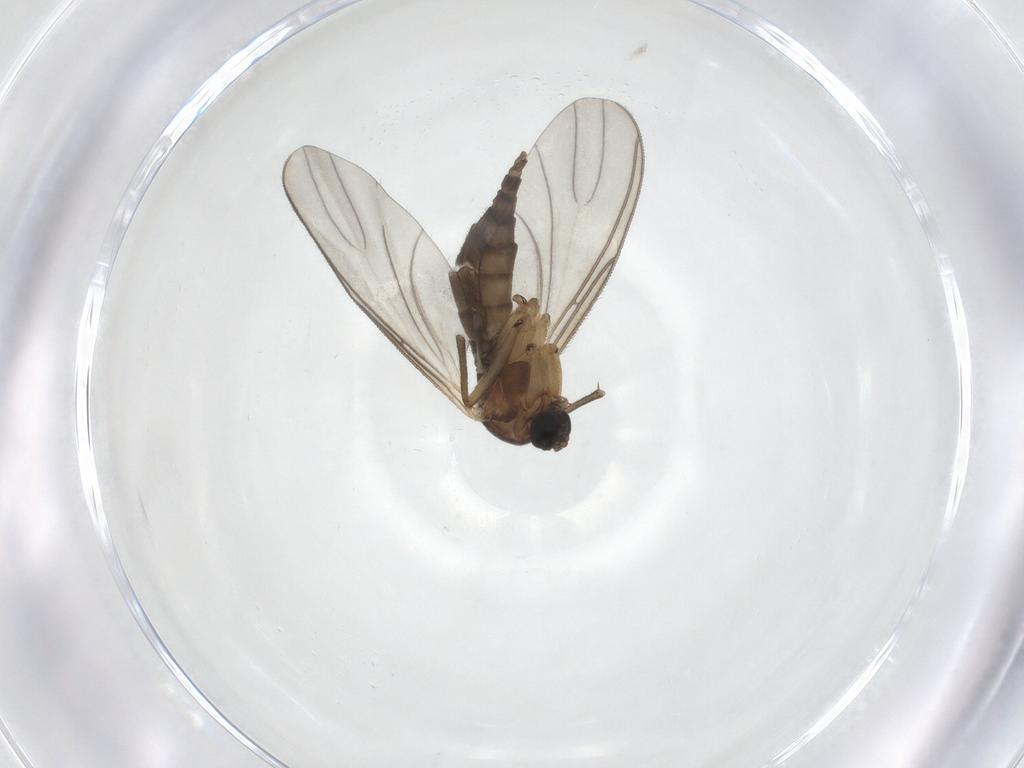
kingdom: Animalia
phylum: Arthropoda
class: Insecta
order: Diptera
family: Sciaridae
